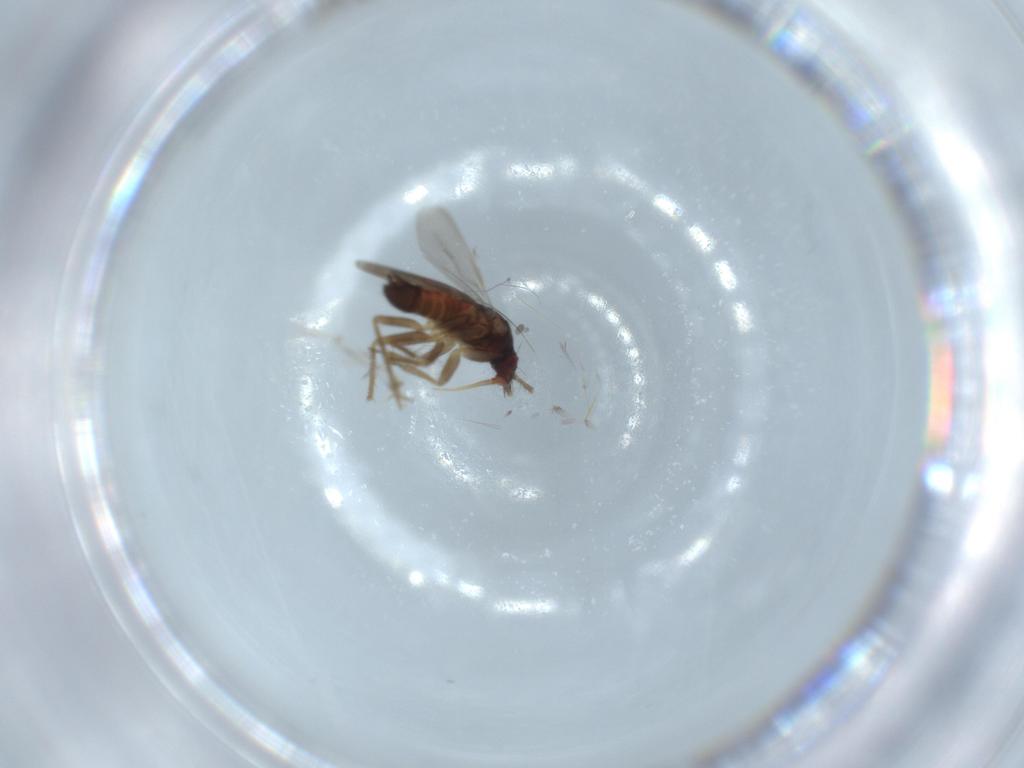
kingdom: Animalia
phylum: Arthropoda
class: Insecta
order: Hemiptera
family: Ceratocombidae
